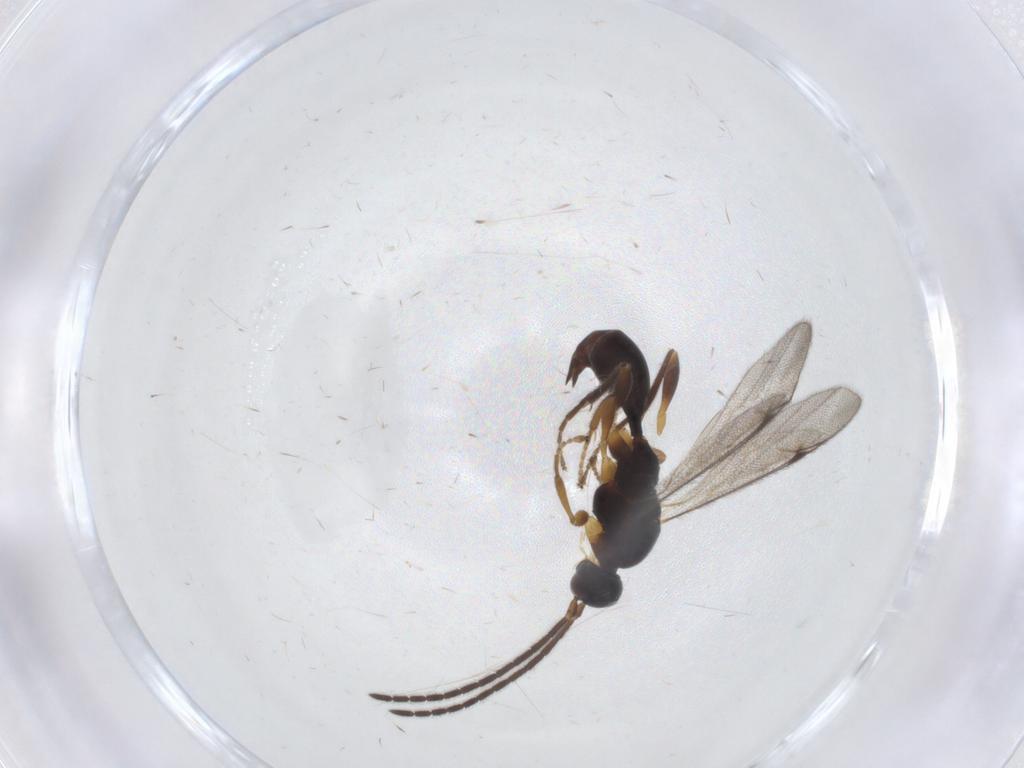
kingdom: Animalia
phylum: Arthropoda
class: Insecta
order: Hymenoptera
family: Proctotrupidae
